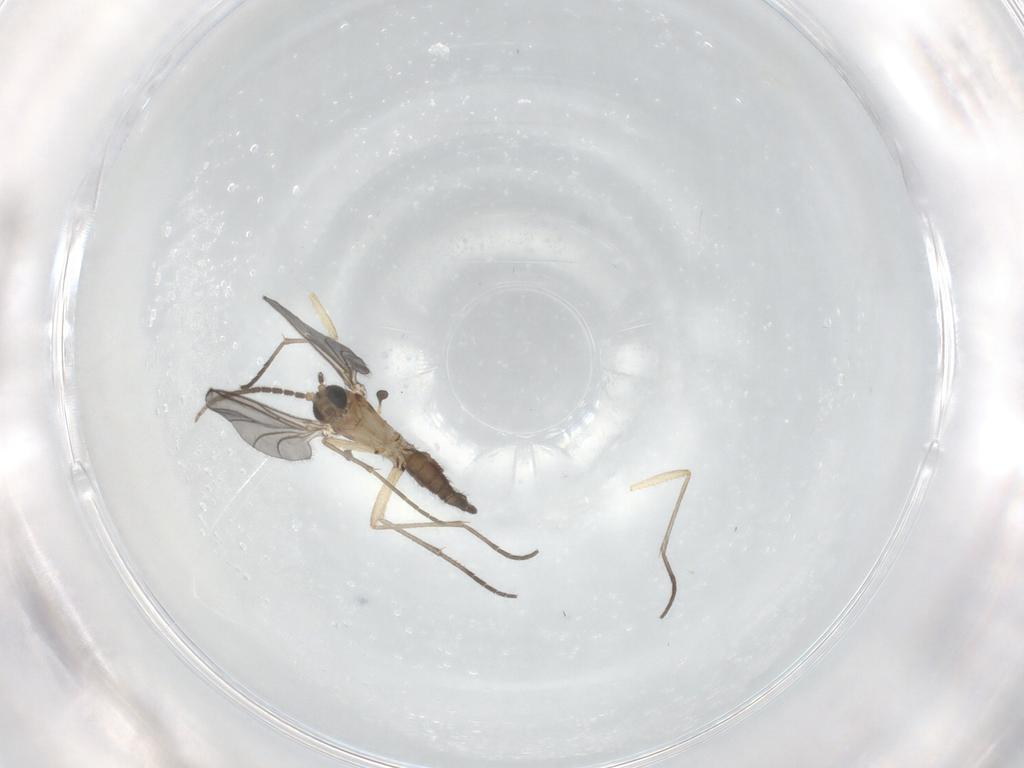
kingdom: Animalia
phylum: Arthropoda
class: Insecta
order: Diptera
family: Sciaridae
